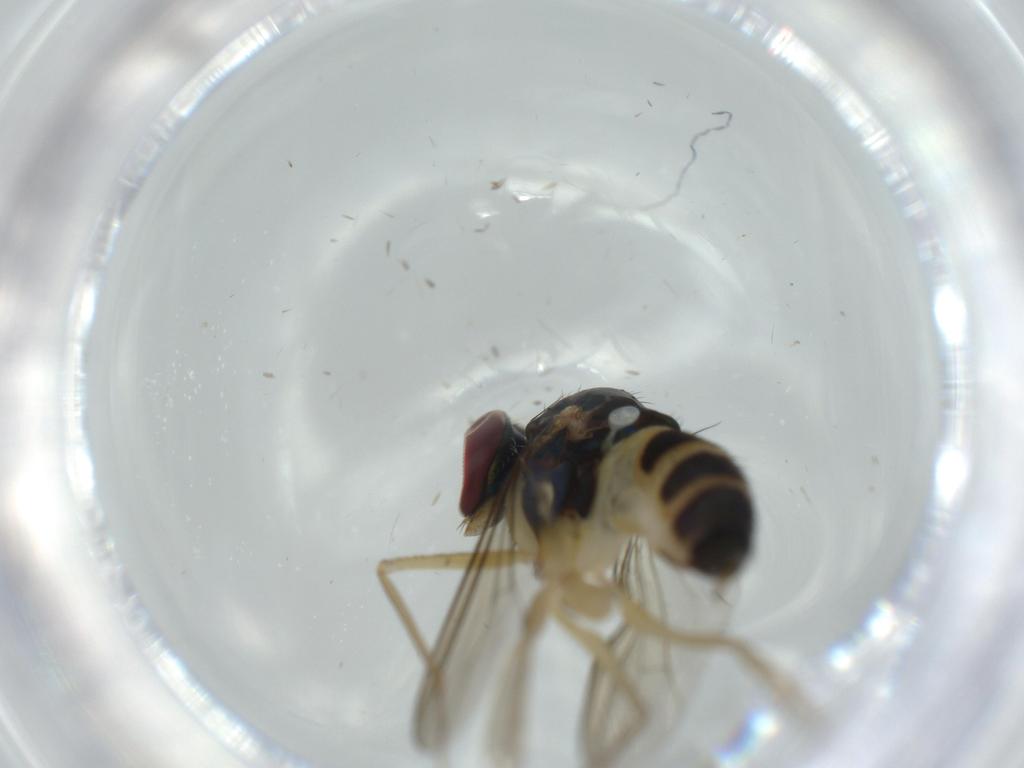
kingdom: Animalia
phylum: Arthropoda
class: Insecta
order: Diptera
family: Dolichopodidae
